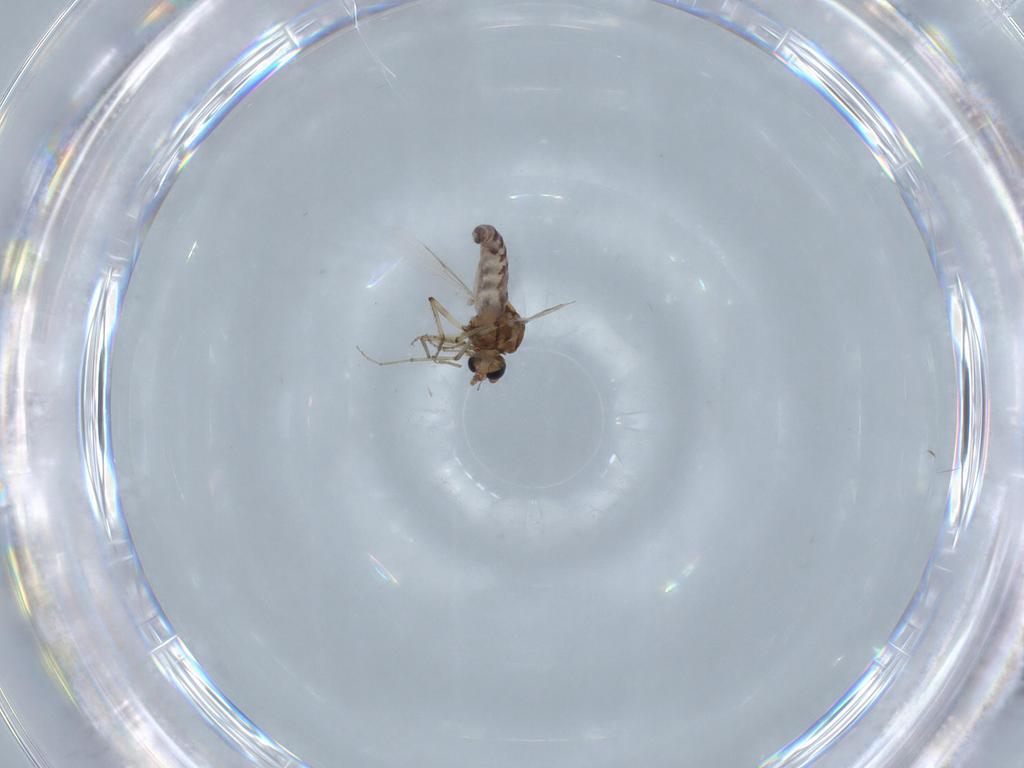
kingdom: Animalia
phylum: Arthropoda
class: Insecta
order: Diptera
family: Ceratopogonidae
